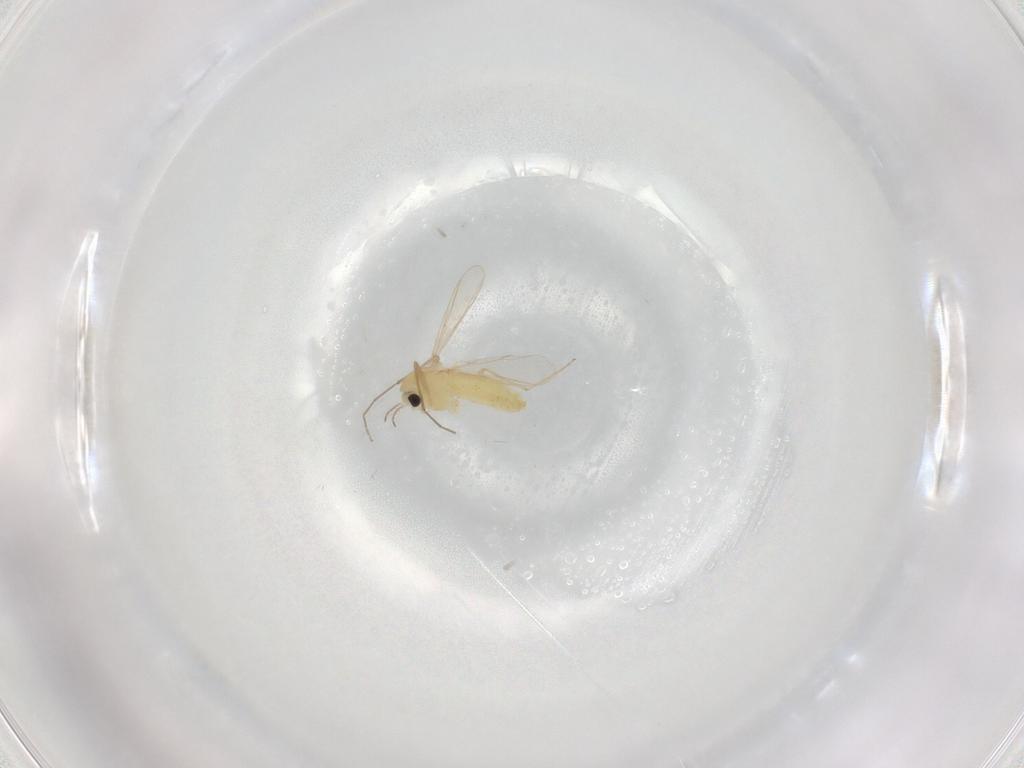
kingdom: Animalia
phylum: Arthropoda
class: Insecta
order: Diptera
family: Chironomidae
